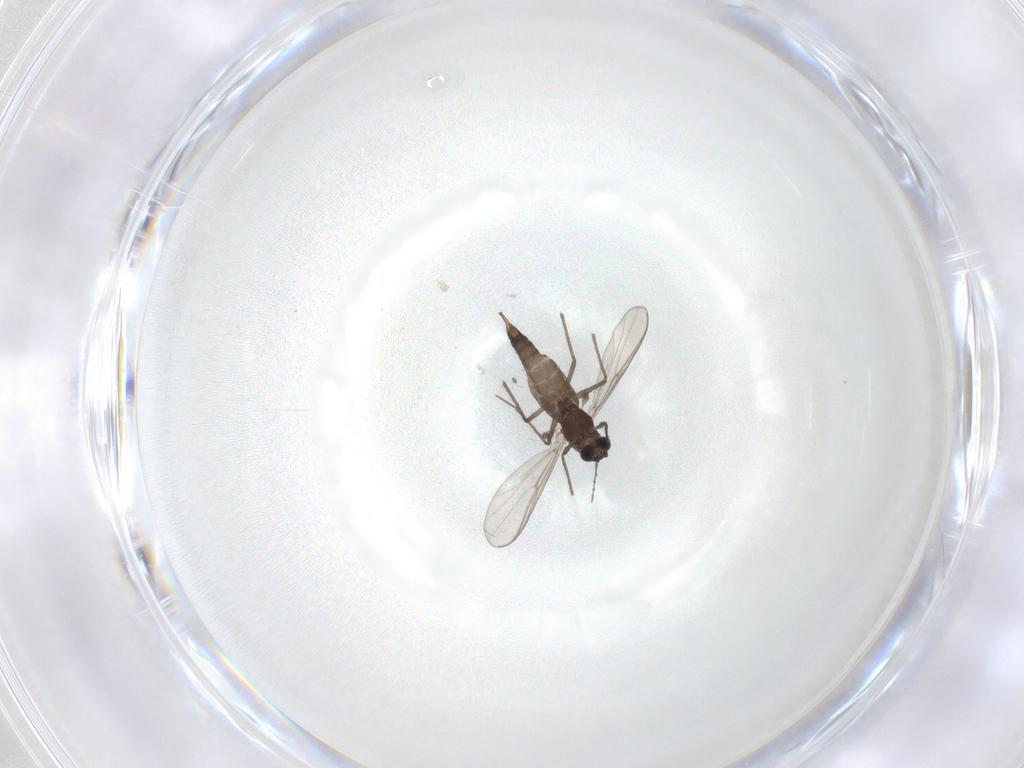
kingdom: Animalia
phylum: Arthropoda
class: Insecta
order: Diptera
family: Chironomidae
